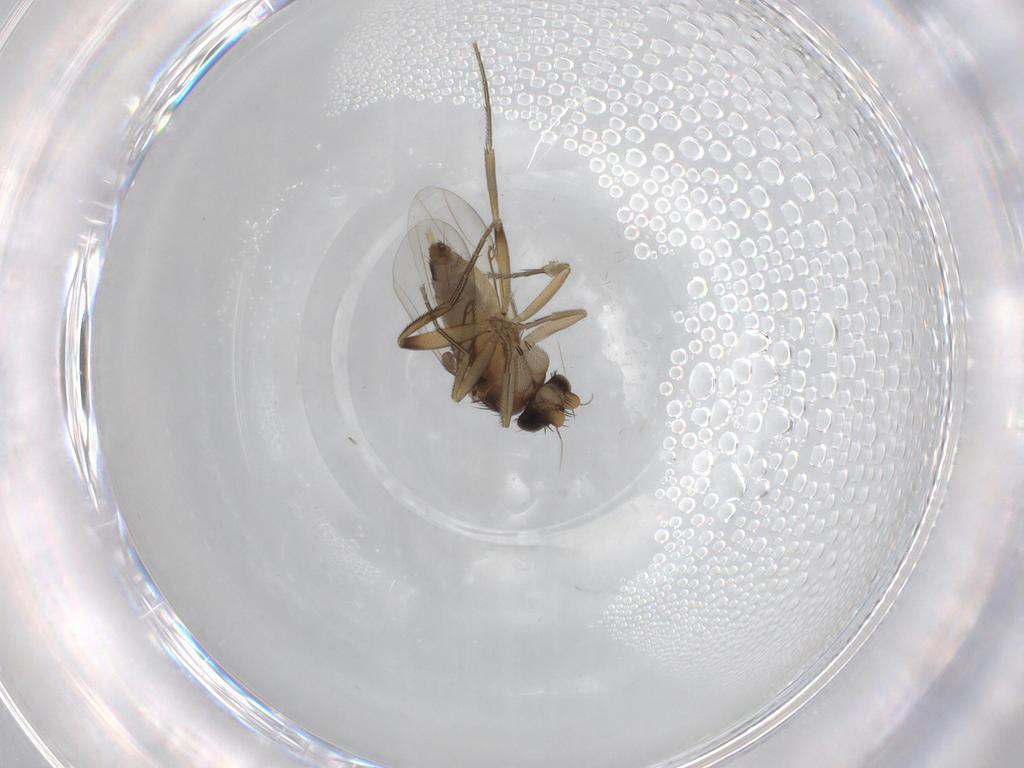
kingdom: Animalia
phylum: Arthropoda
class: Insecta
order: Diptera
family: Phoridae
